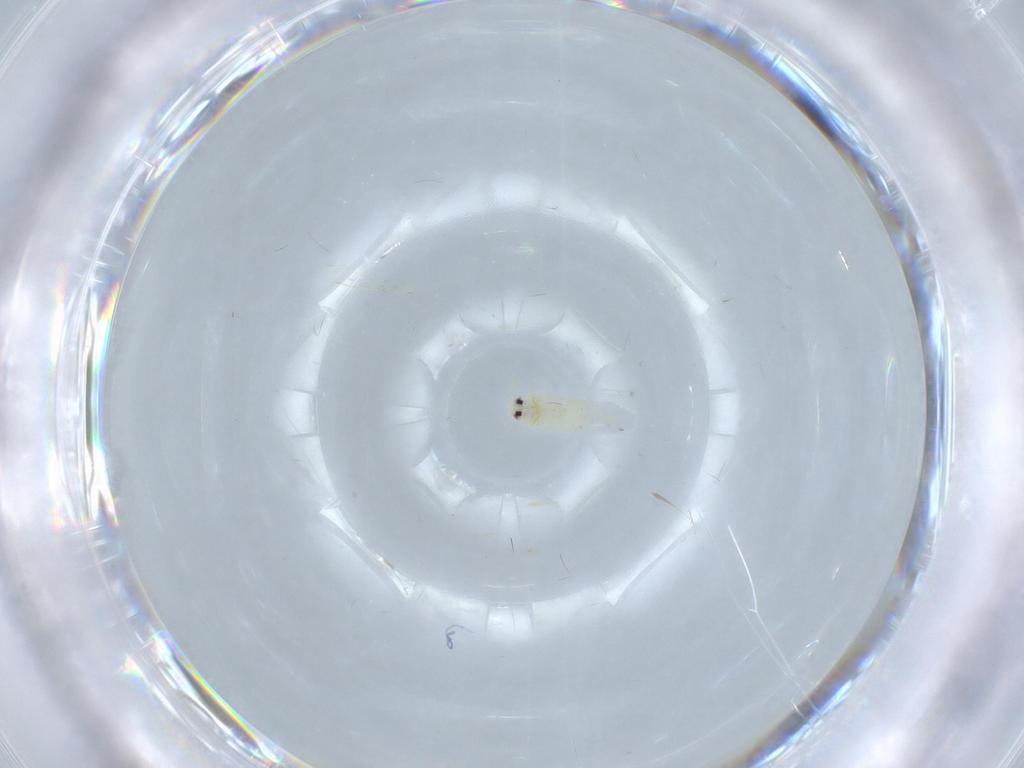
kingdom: Animalia
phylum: Arthropoda
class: Insecta
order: Hemiptera
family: Aleyrodidae
